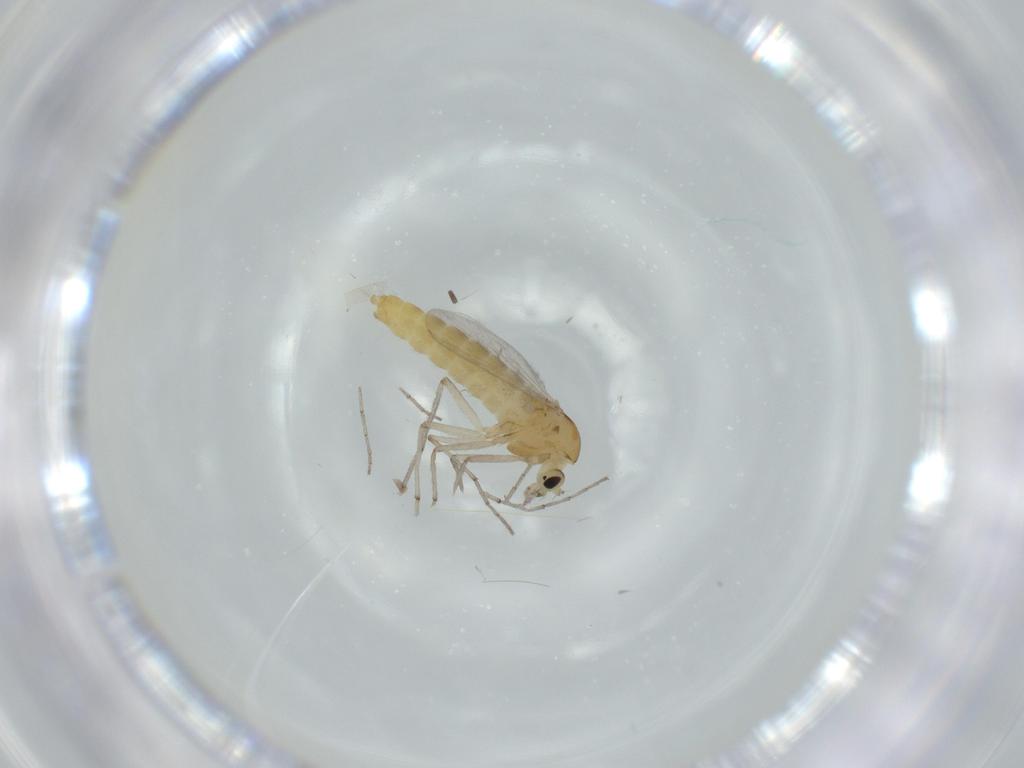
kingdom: Animalia
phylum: Arthropoda
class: Insecta
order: Diptera
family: Chironomidae
